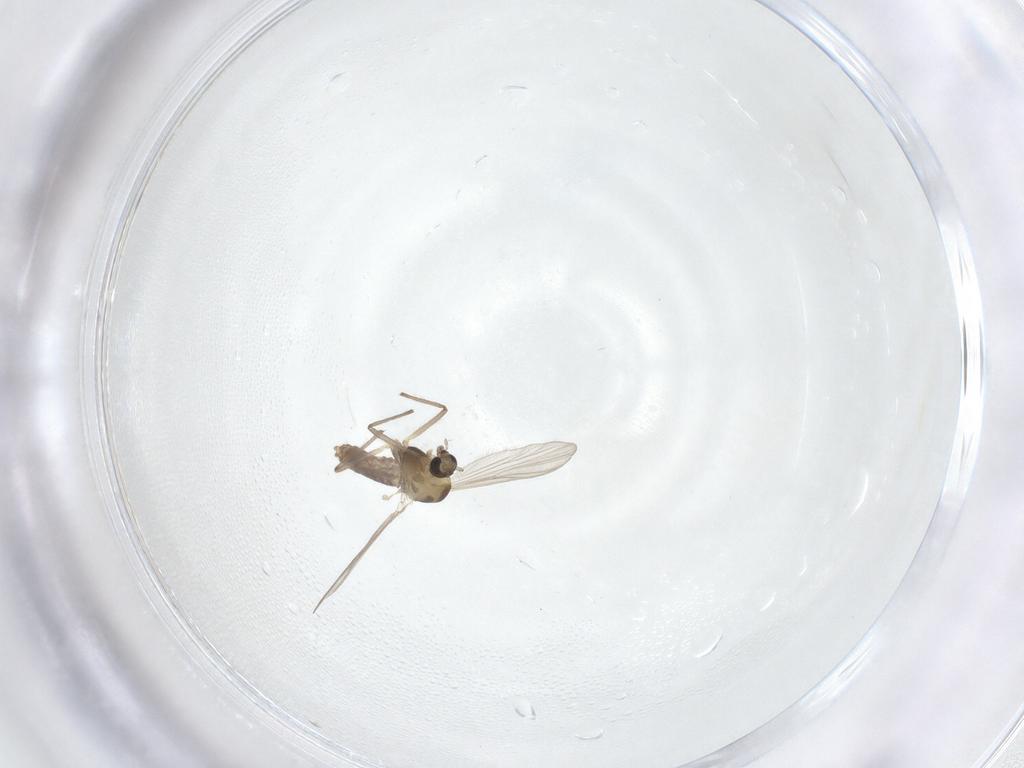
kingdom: Animalia
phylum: Arthropoda
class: Insecta
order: Diptera
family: Chironomidae
